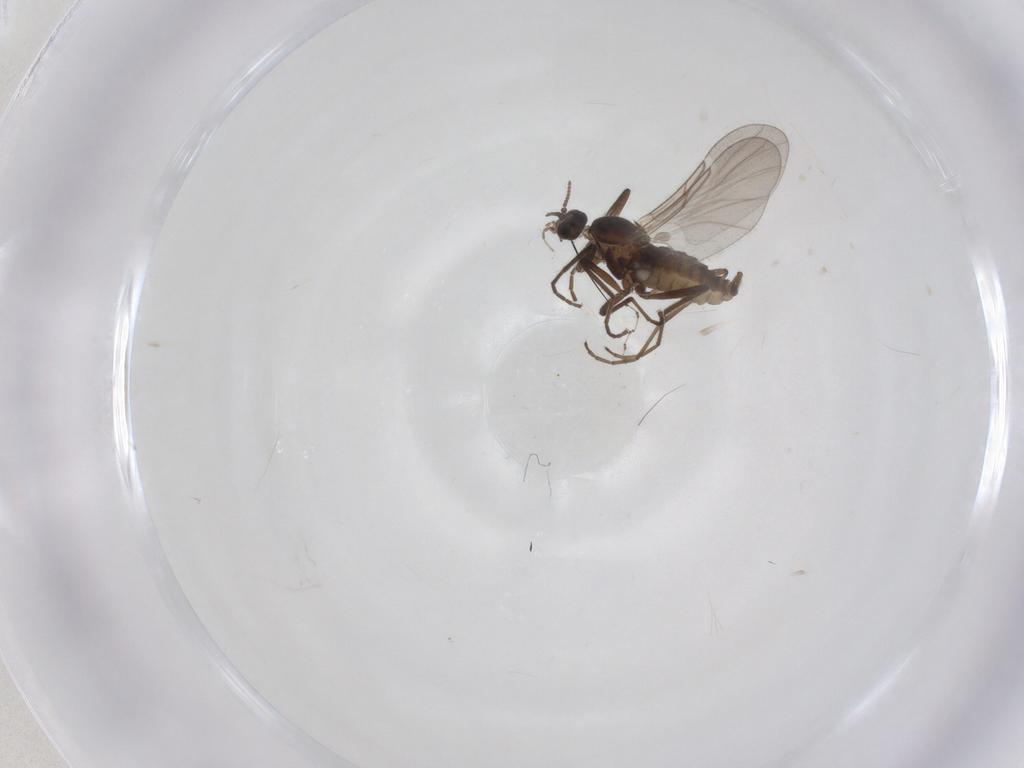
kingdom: Animalia
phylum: Arthropoda
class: Insecta
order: Diptera
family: Cecidomyiidae
